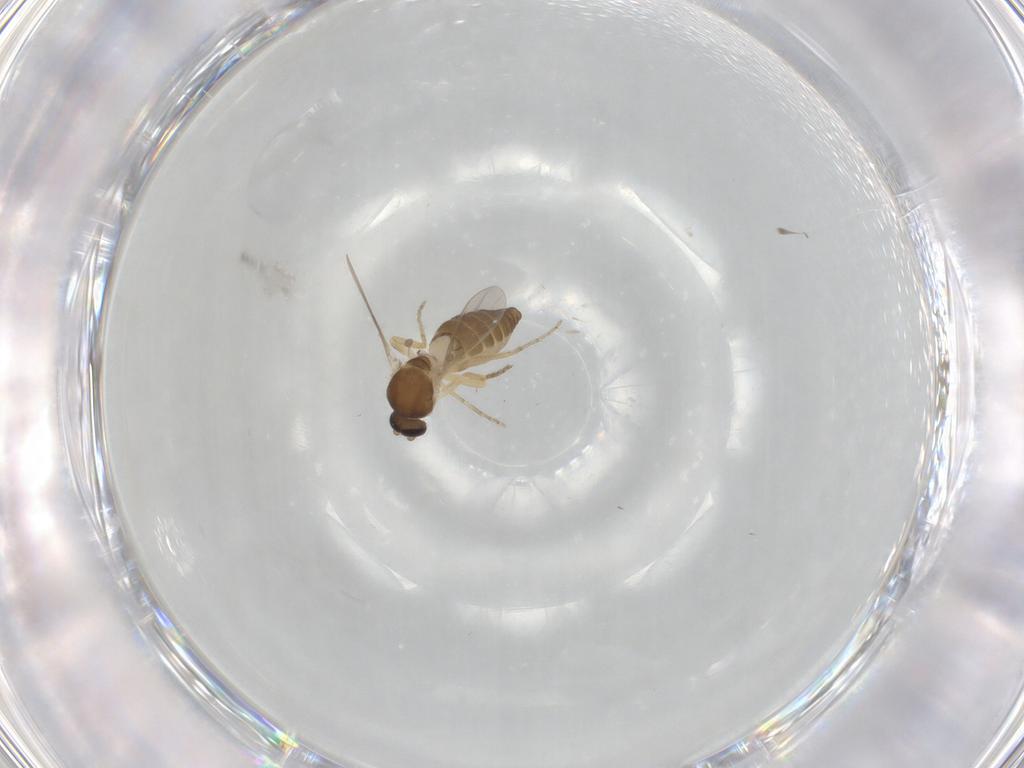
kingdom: Animalia
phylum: Arthropoda
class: Insecta
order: Diptera
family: Ceratopogonidae
